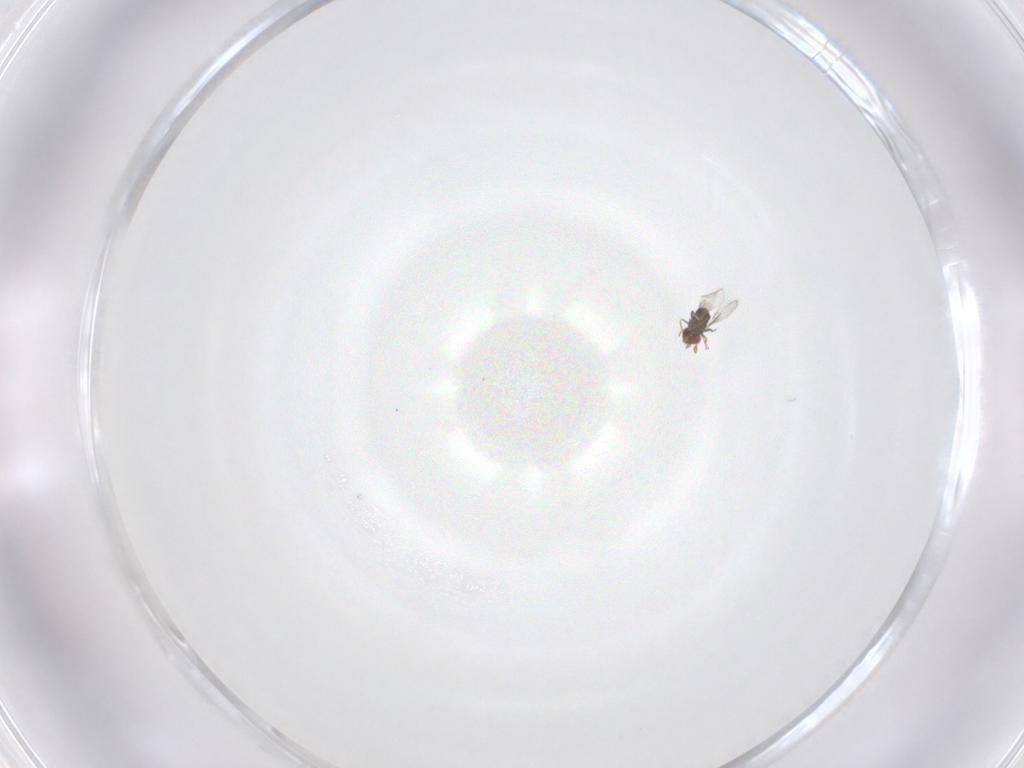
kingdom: Animalia
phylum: Arthropoda
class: Insecta
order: Hymenoptera
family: Trichogrammatidae
